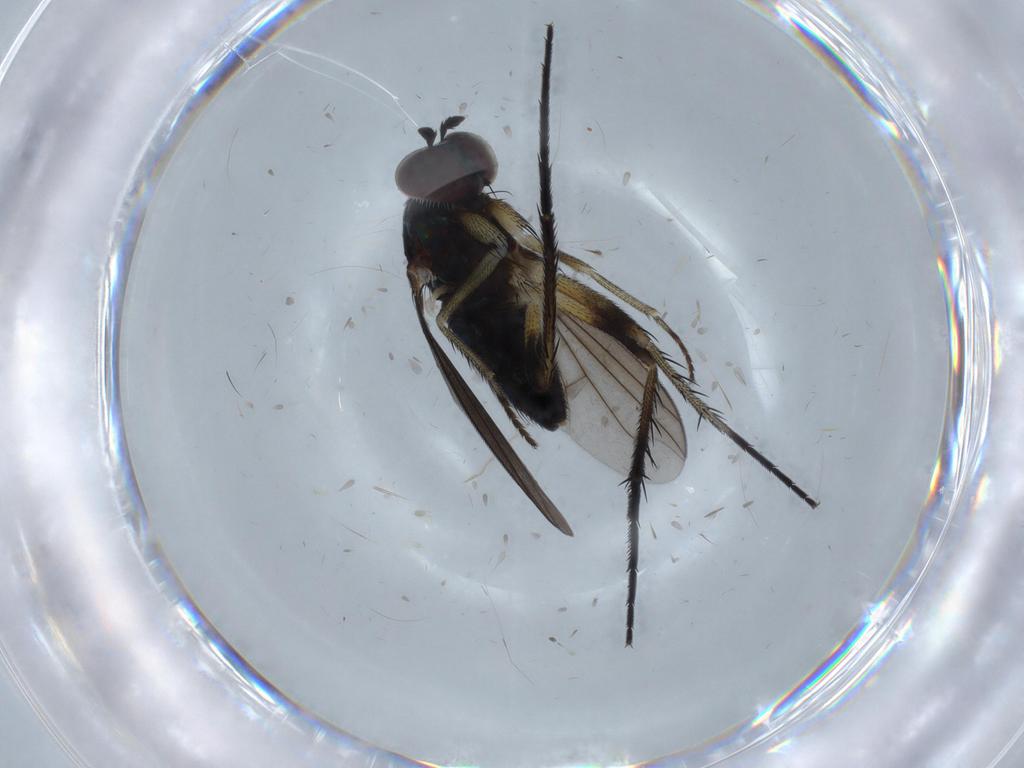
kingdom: Animalia
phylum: Arthropoda
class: Insecta
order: Diptera
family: Dolichopodidae
